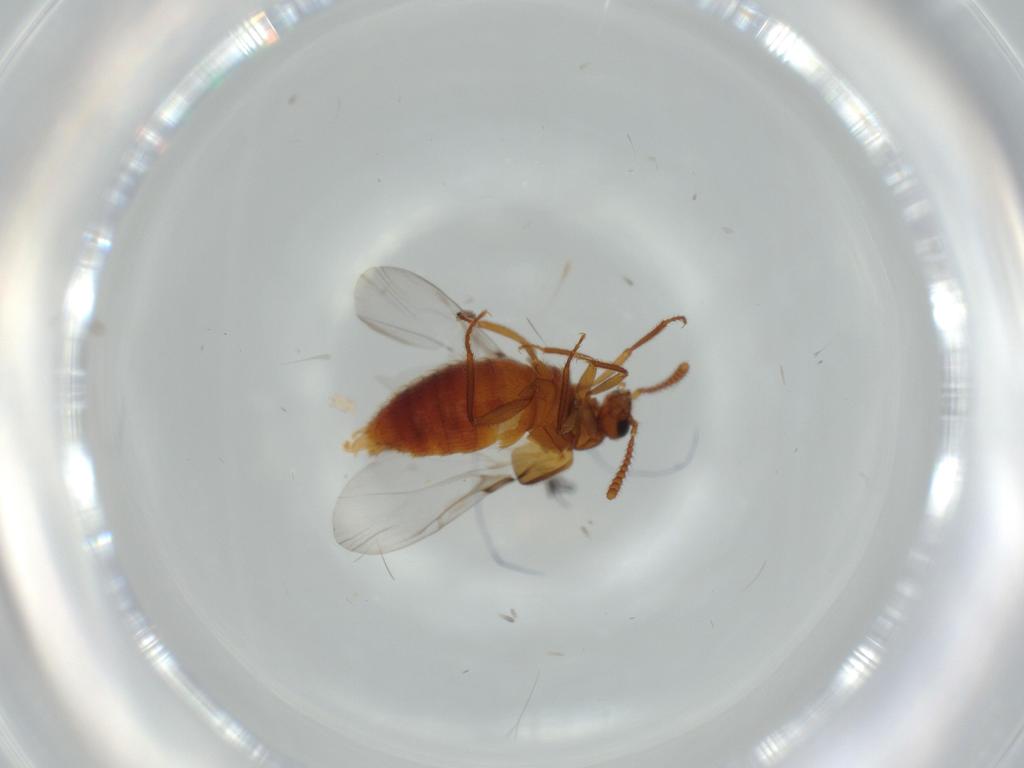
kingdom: Animalia
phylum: Arthropoda
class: Insecta
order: Coleoptera
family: Staphylinidae
